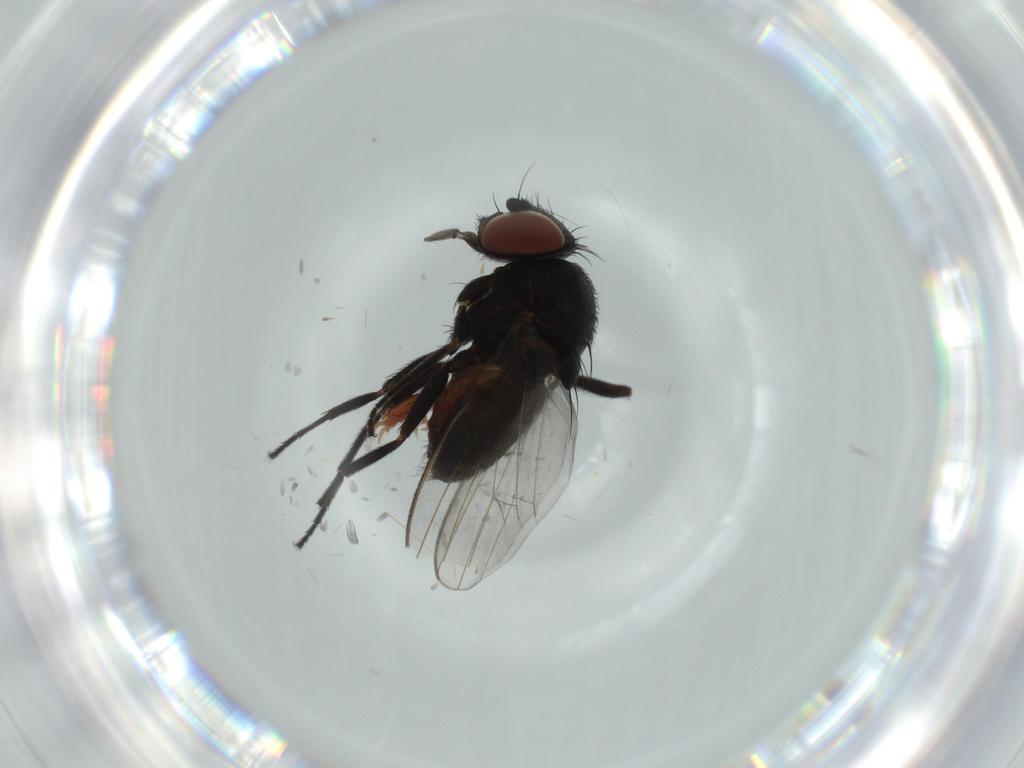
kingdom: Animalia
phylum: Arthropoda
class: Insecta
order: Diptera
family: Milichiidae
